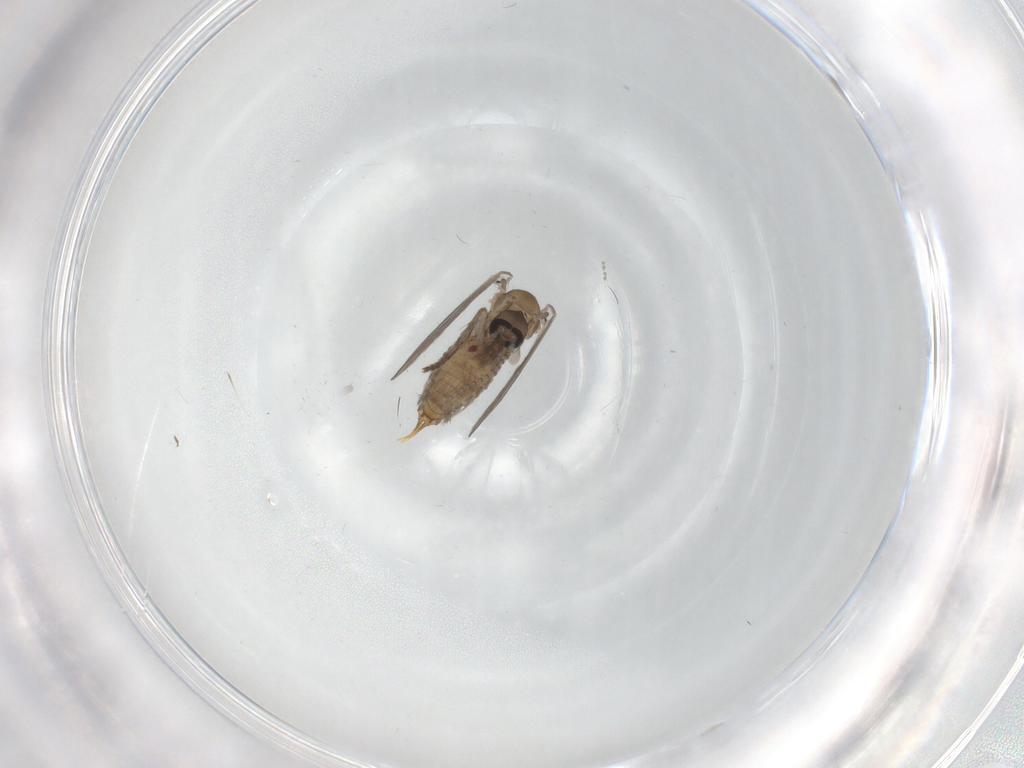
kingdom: Animalia
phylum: Arthropoda
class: Insecta
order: Diptera
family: Psychodidae
